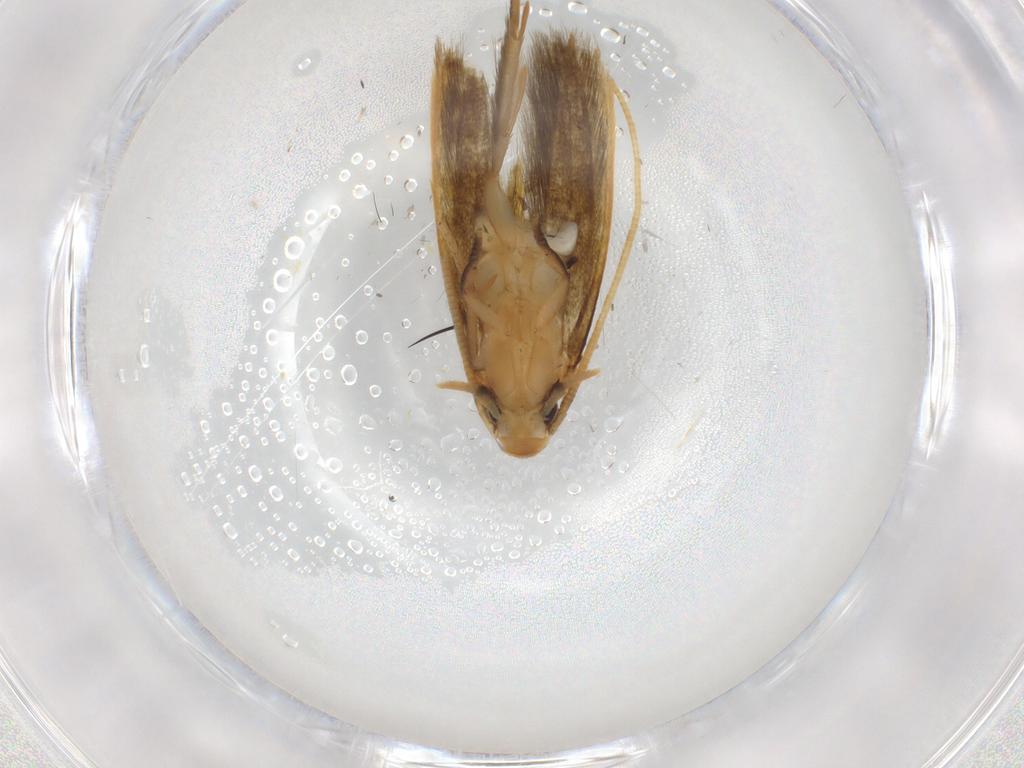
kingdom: Animalia
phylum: Arthropoda
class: Insecta
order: Lepidoptera
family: Tineidae
